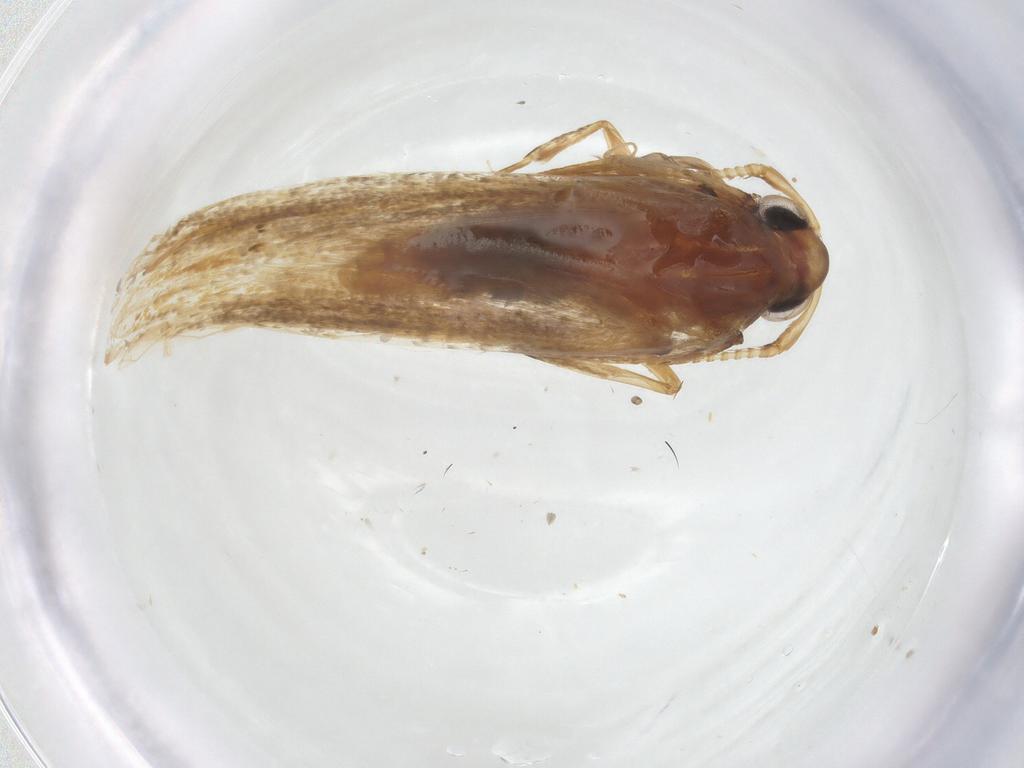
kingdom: Animalia
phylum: Arthropoda
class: Insecta
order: Lepidoptera
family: Lecithoceridae
